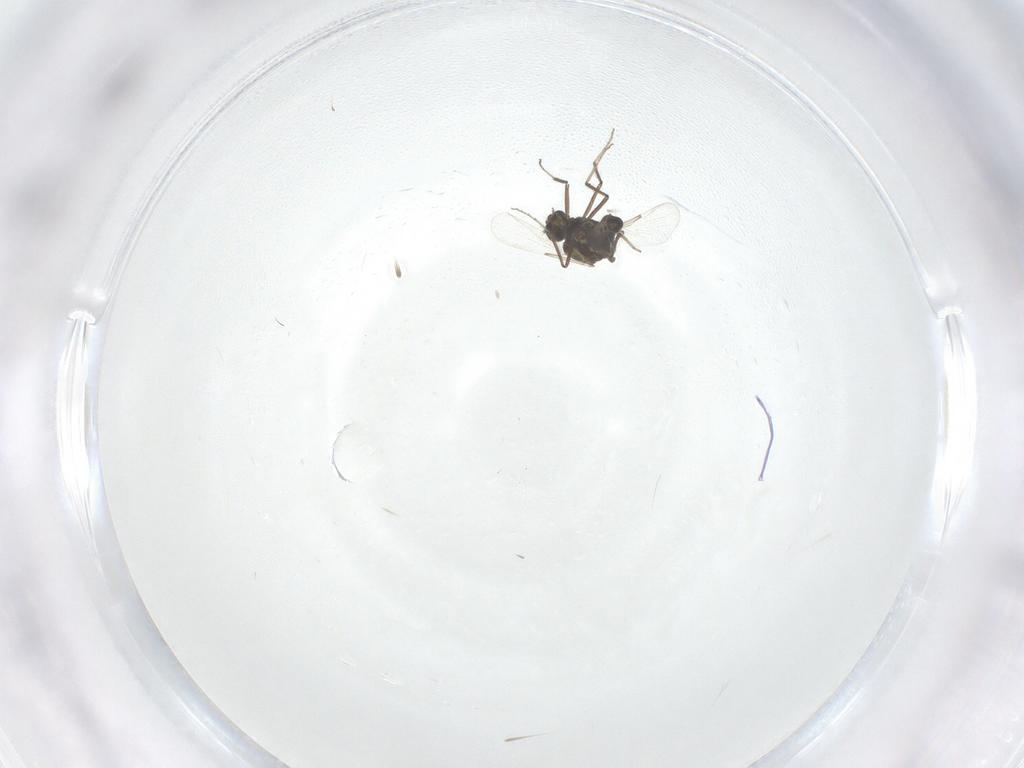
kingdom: Animalia
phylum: Arthropoda
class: Insecta
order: Diptera
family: Ceratopogonidae
